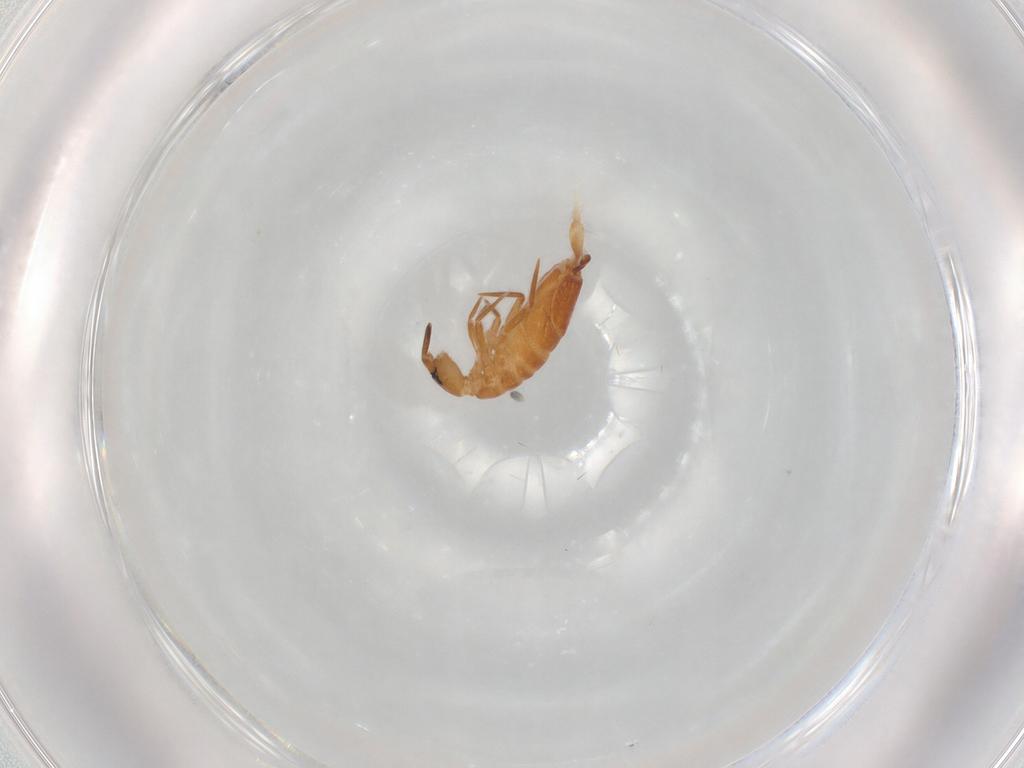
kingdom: Animalia
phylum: Arthropoda
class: Collembola
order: Entomobryomorpha
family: Entomobryidae
